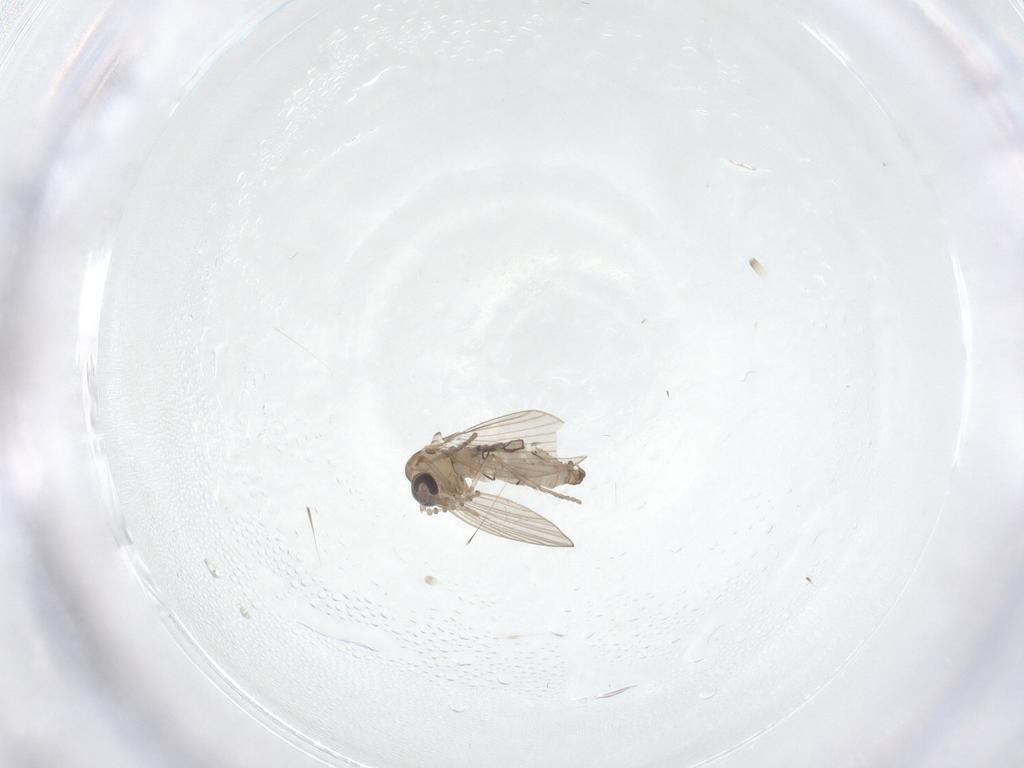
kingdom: Animalia
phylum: Arthropoda
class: Insecta
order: Diptera
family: Psychodidae
